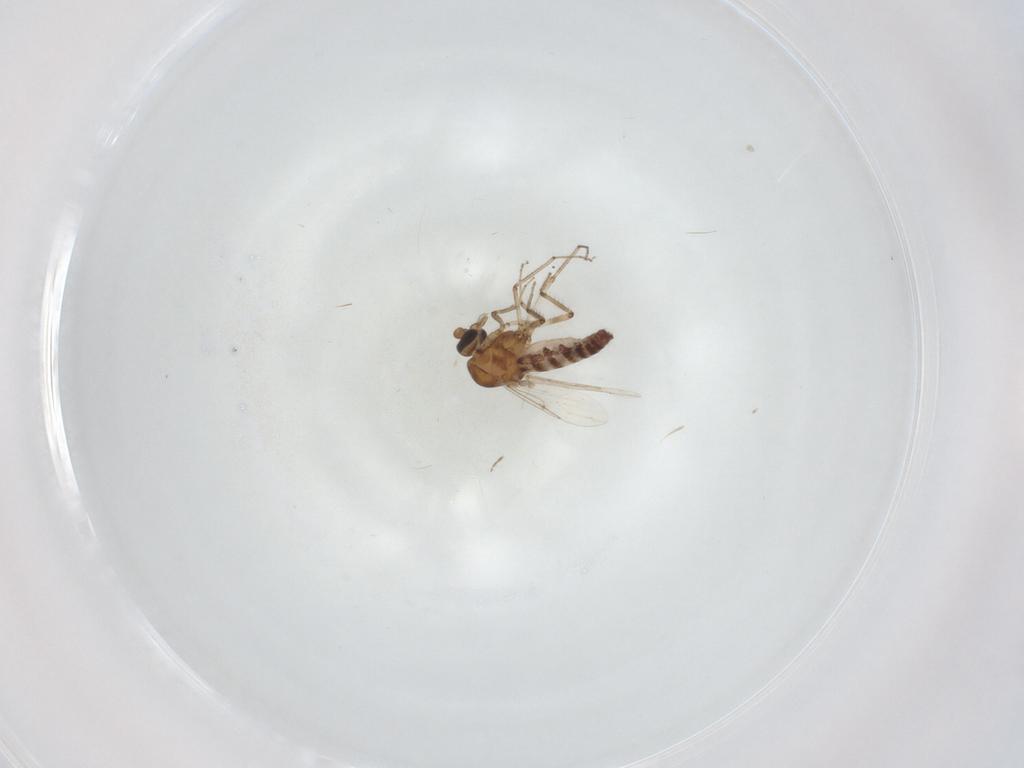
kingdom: Animalia
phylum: Arthropoda
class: Insecta
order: Diptera
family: Ceratopogonidae
